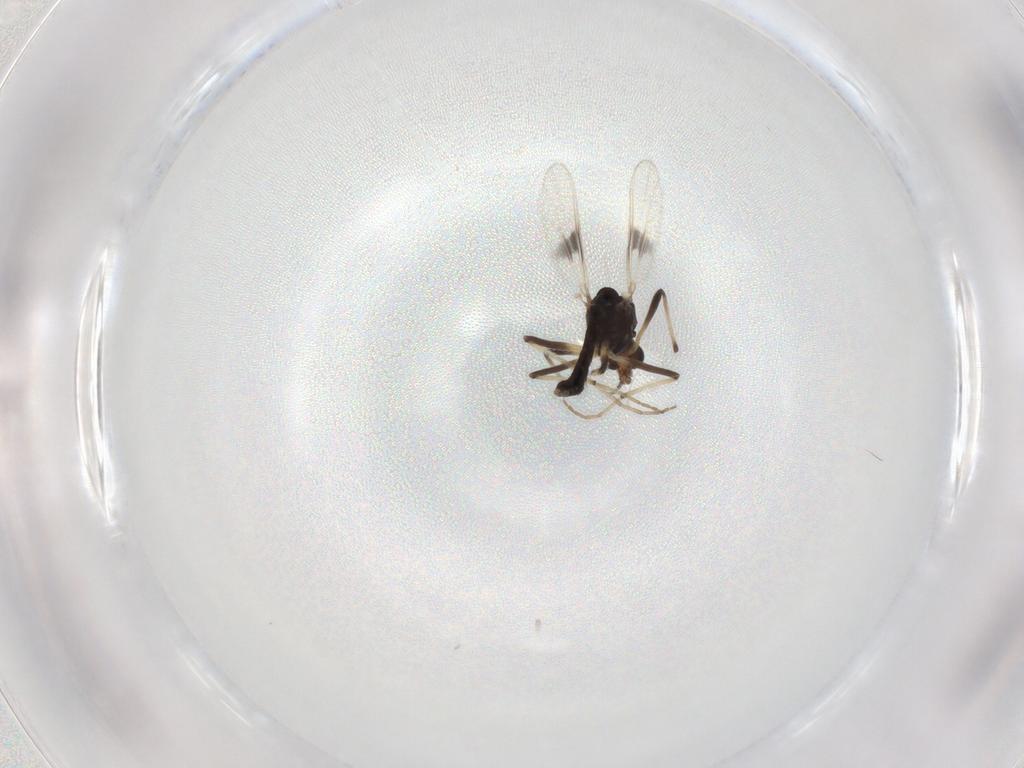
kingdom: Animalia
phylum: Arthropoda
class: Insecta
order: Diptera
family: Chironomidae
